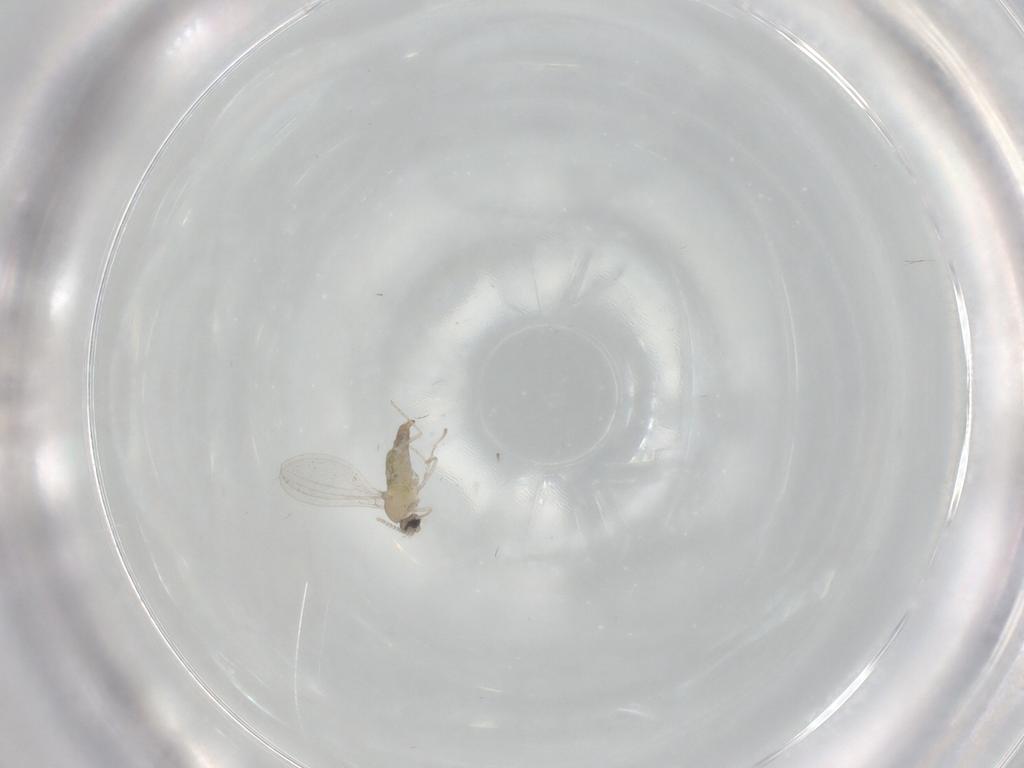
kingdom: Animalia
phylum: Arthropoda
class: Insecta
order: Diptera
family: Cecidomyiidae
